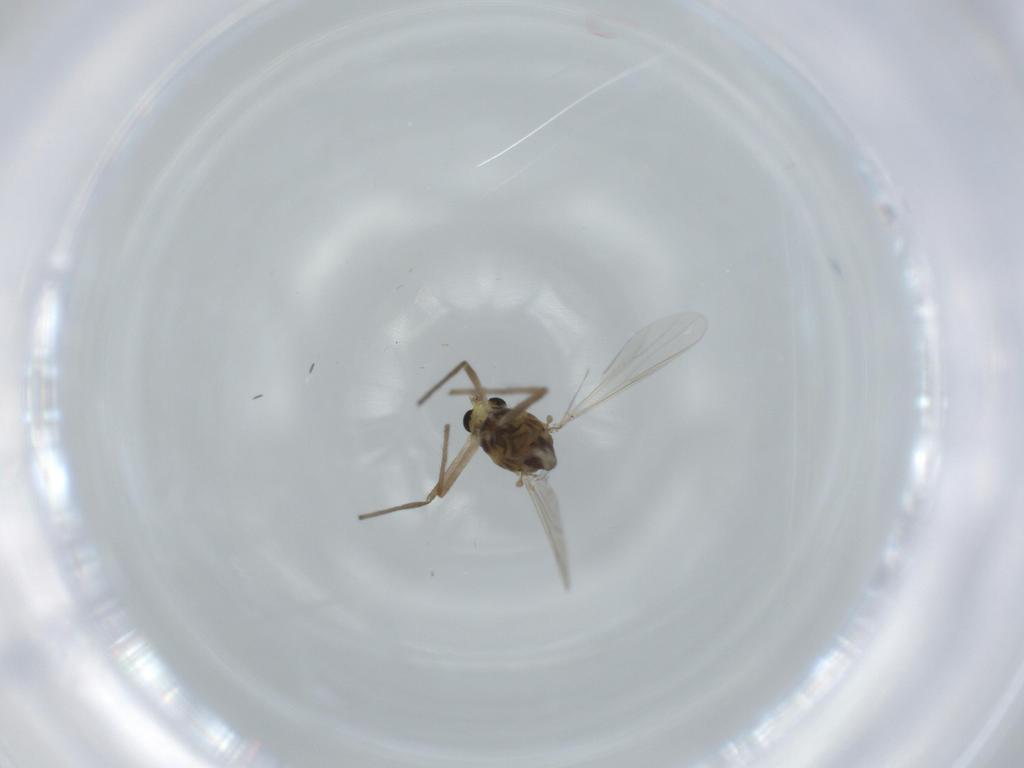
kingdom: Animalia
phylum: Arthropoda
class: Insecta
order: Diptera
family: Chironomidae
